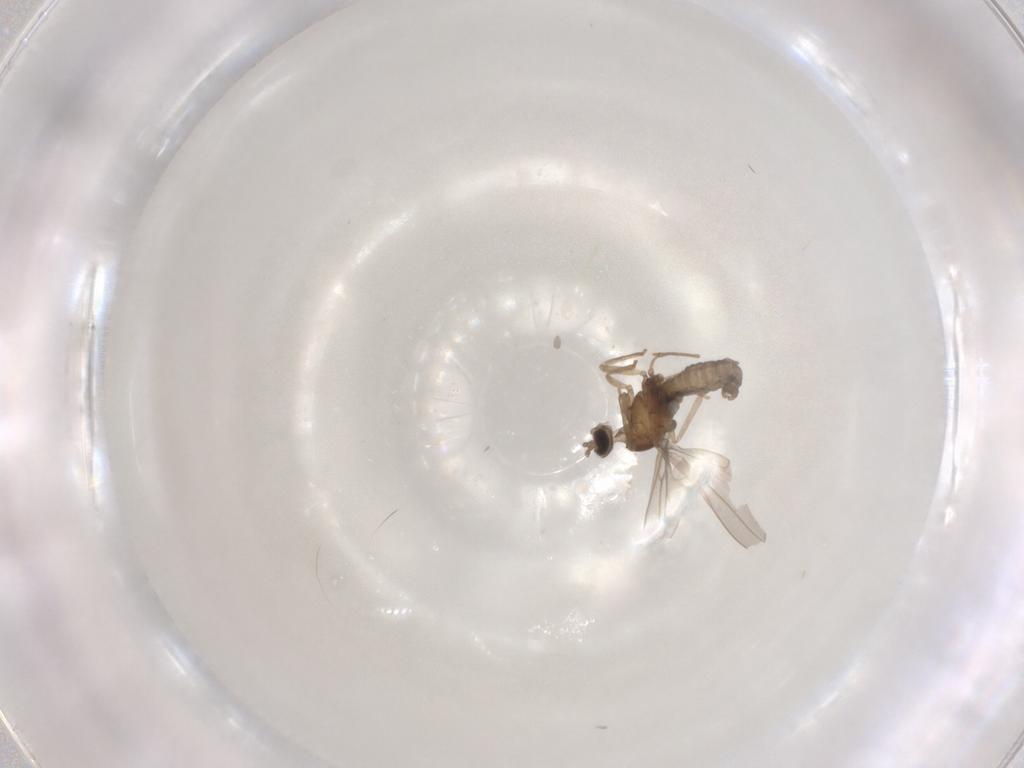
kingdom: Animalia
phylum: Arthropoda
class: Insecta
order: Diptera
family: Cecidomyiidae
